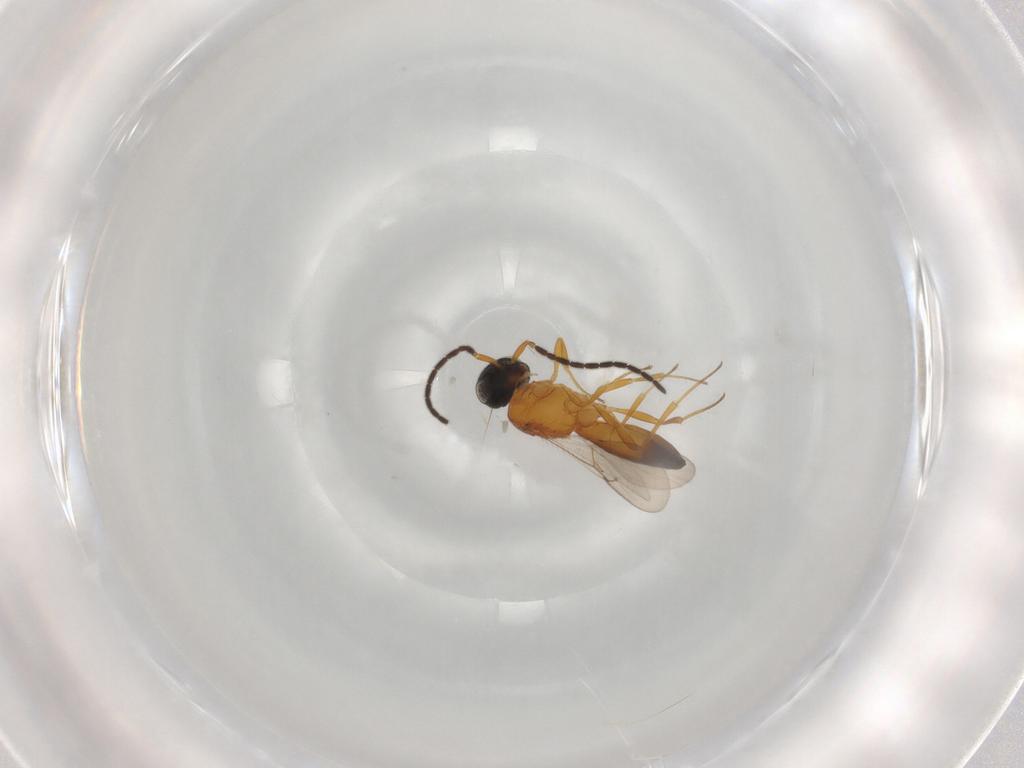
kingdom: Animalia
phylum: Arthropoda
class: Insecta
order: Hymenoptera
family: Scelionidae
